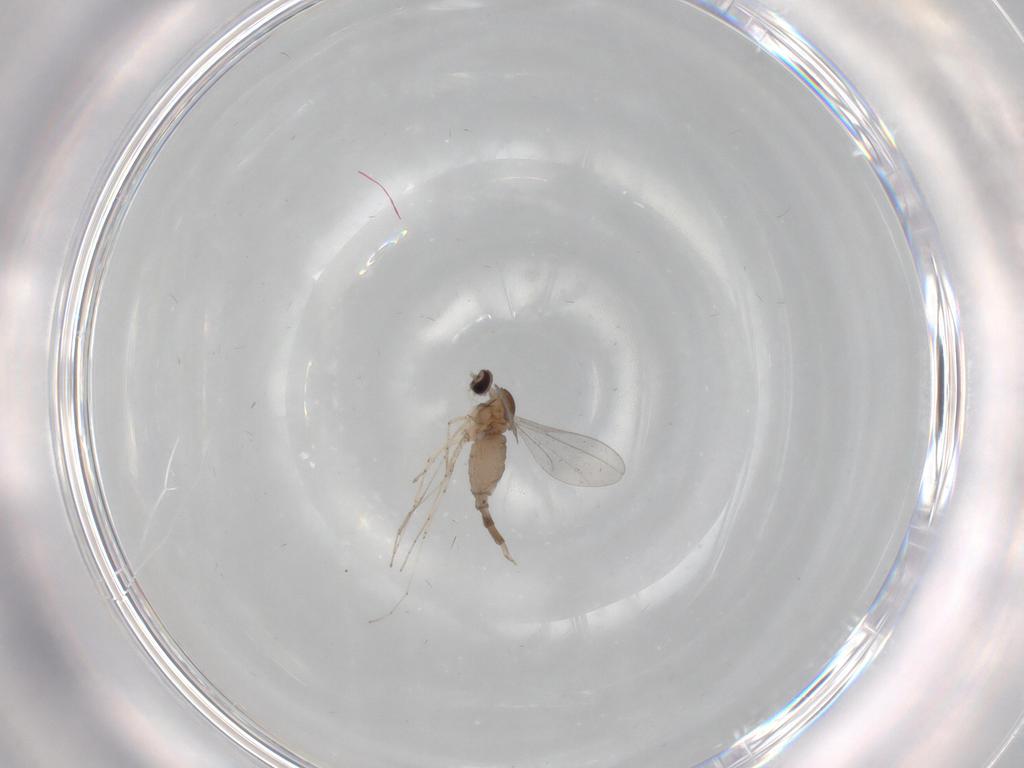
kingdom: Animalia
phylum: Arthropoda
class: Insecta
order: Diptera
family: Cecidomyiidae
